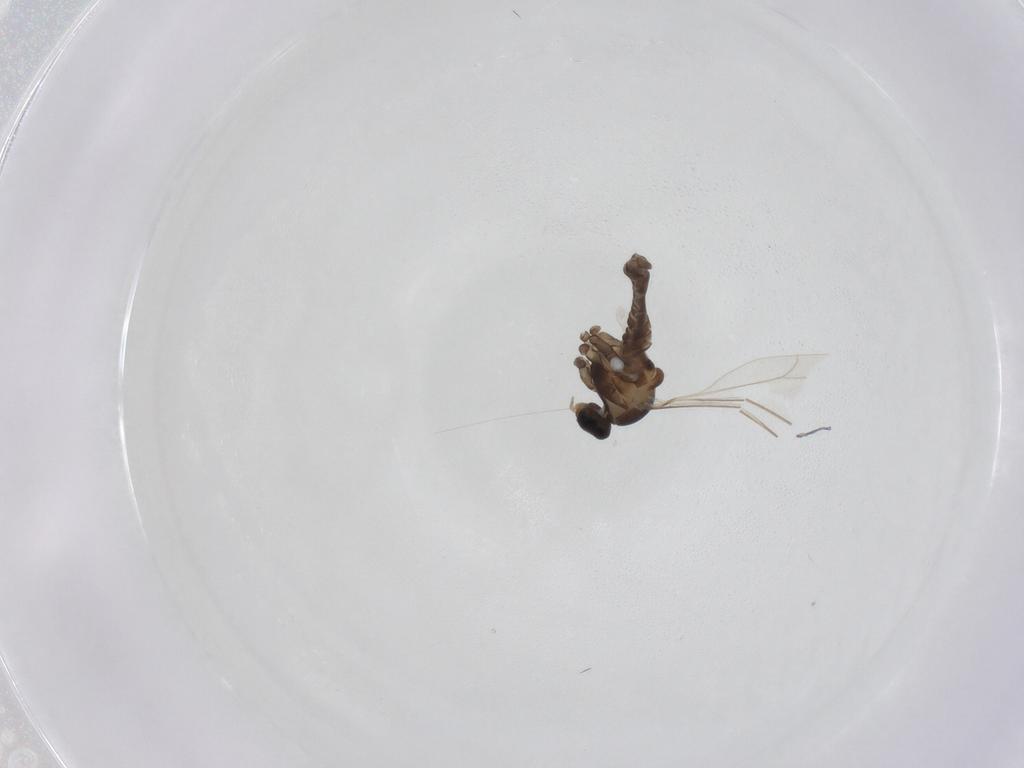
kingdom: Animalia
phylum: Arthropoda
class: Insecta
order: Diptera
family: Cecidomyiidae
